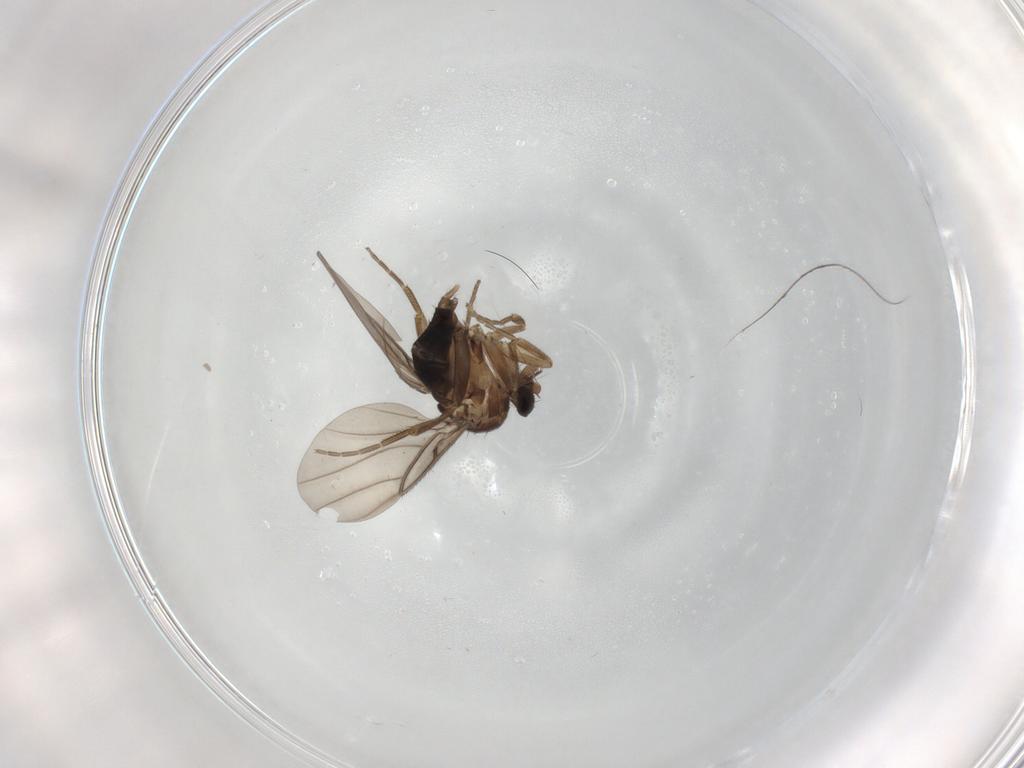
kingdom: Animalia
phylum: Arthropoda
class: Insecta
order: Diptera
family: Phoridae
